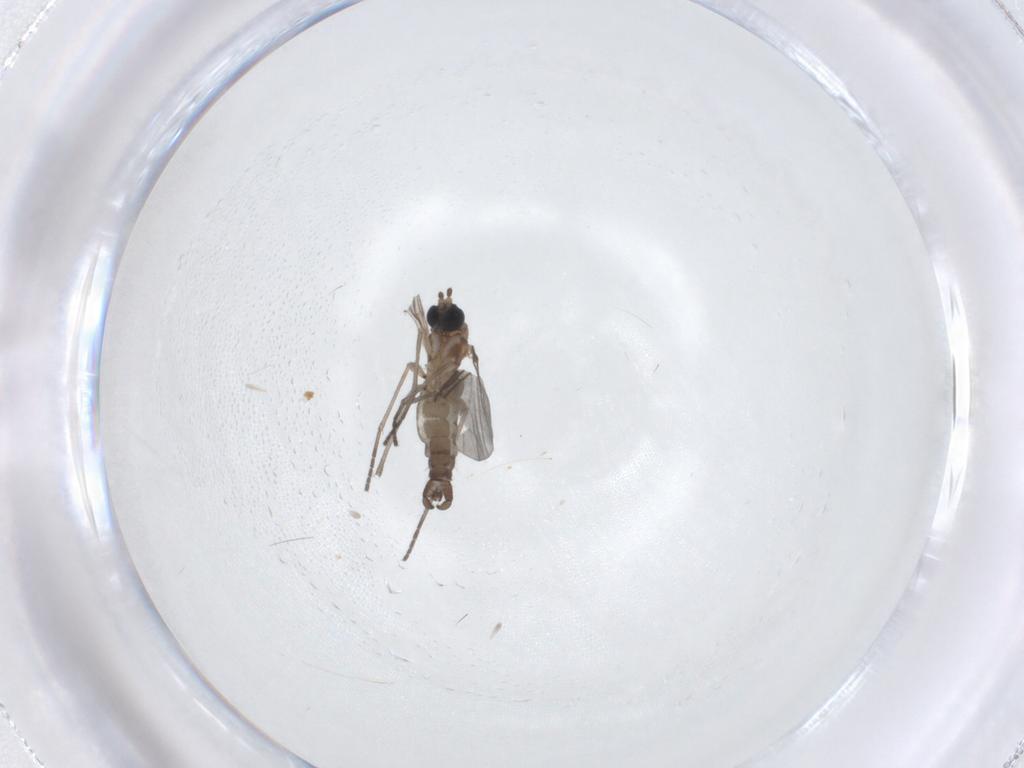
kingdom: Animalia
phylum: Arthropoda
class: Insecta
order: Diptera
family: Sciaridae
